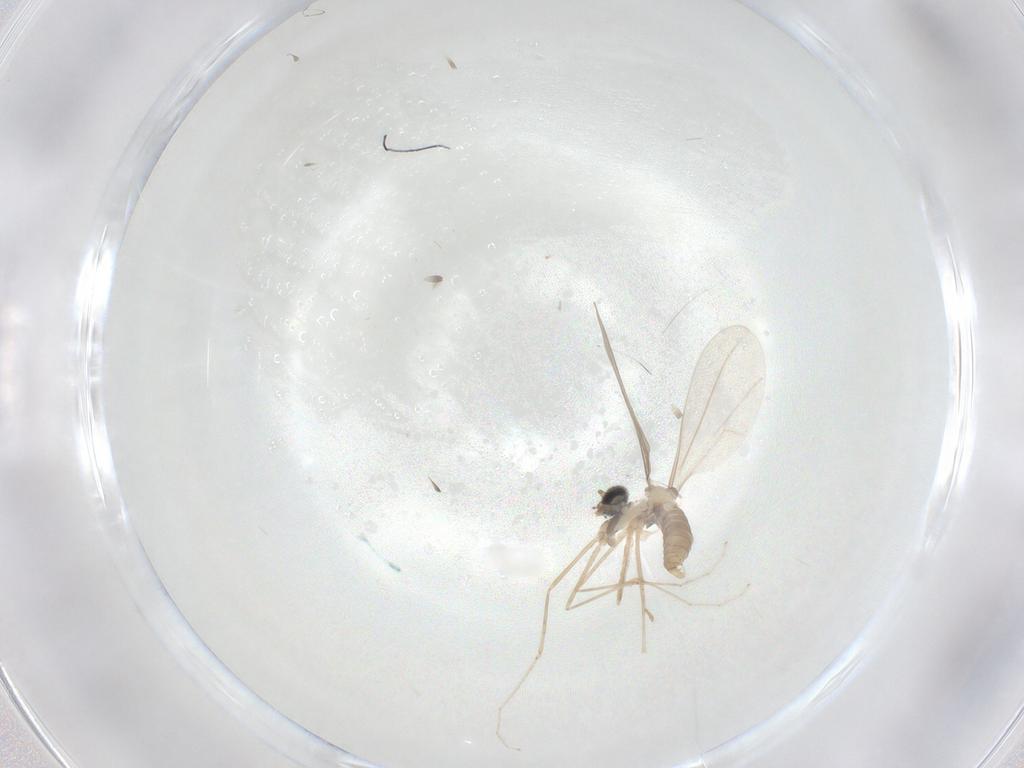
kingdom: Animalia
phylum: Arthropoda
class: Insecta
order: Diptera
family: Cecidomyiidae
